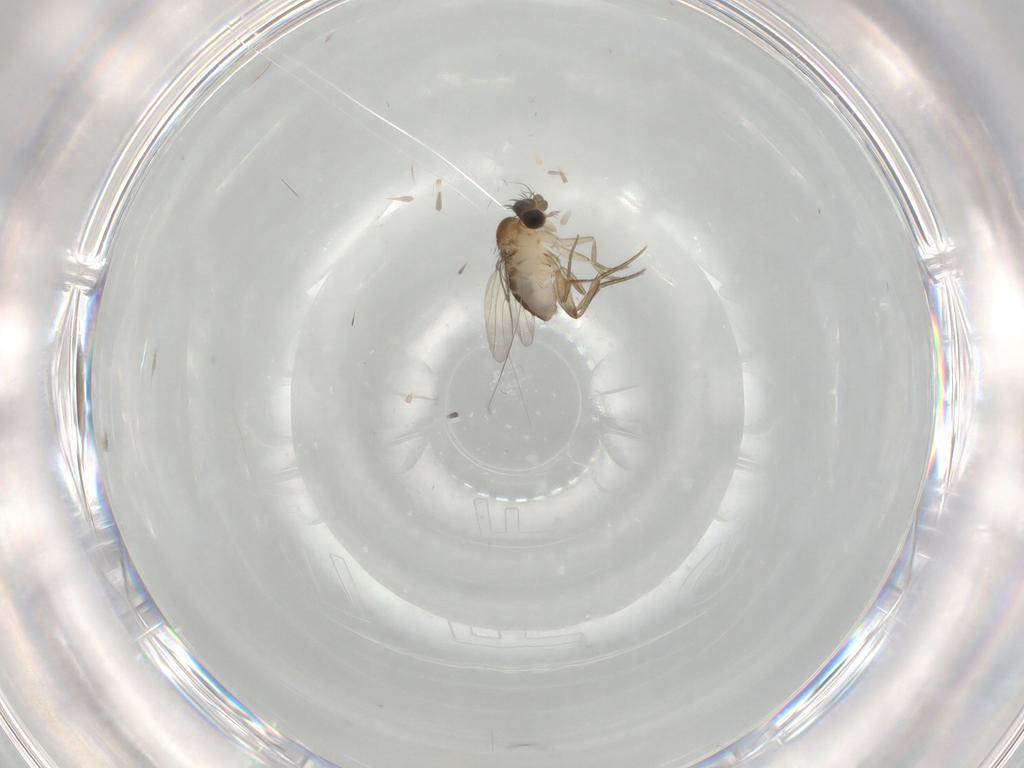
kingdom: Animalia
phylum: Arthropoda
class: Insecta
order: Diptera
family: Phoridae
